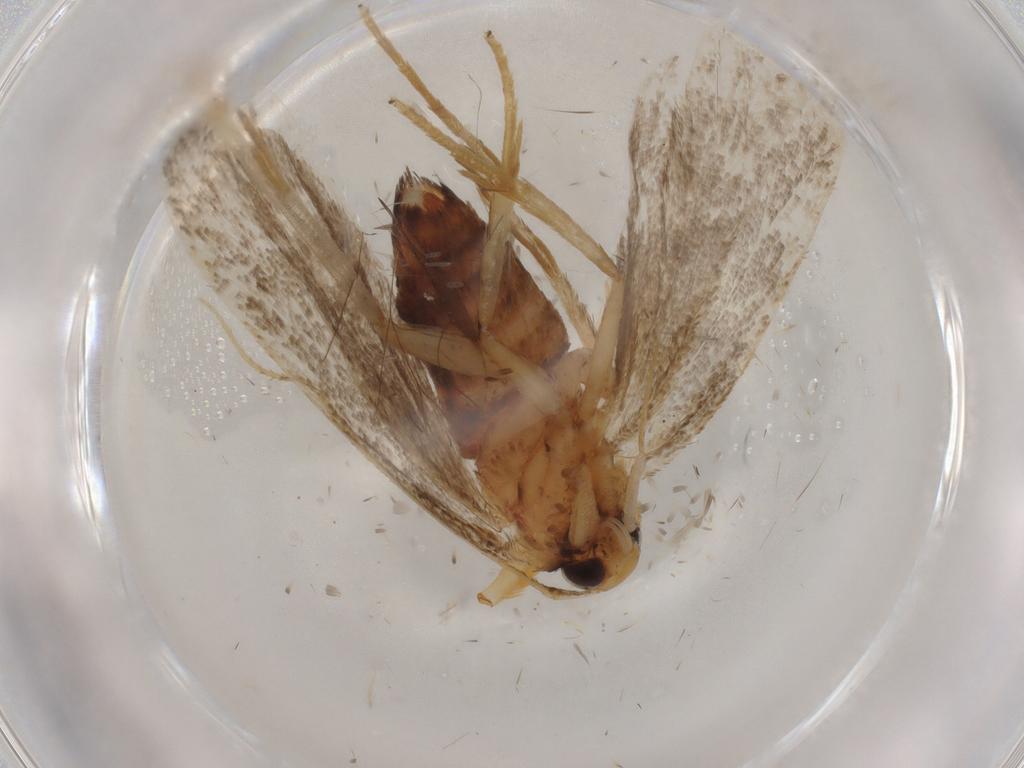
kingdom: Animalia
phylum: Arthropoda
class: Insecta
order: Lepidoptera
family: Lecithoceridae
